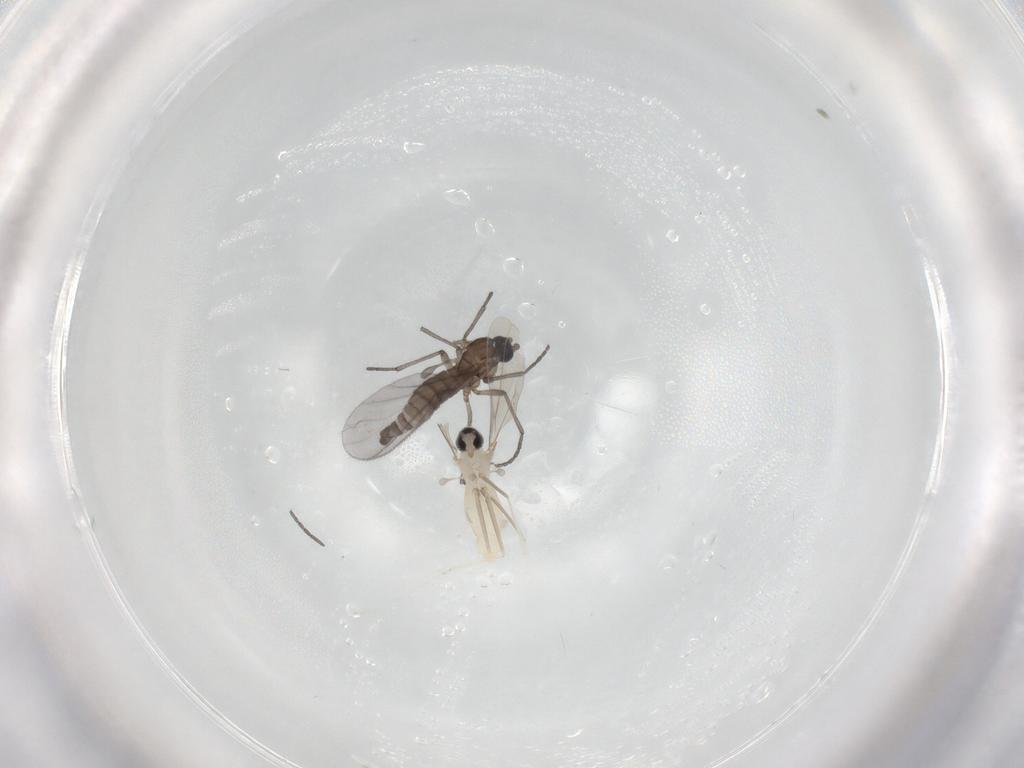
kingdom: Animalia
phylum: Arthropoda
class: Insecta
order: Diptera
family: Sciaridae
